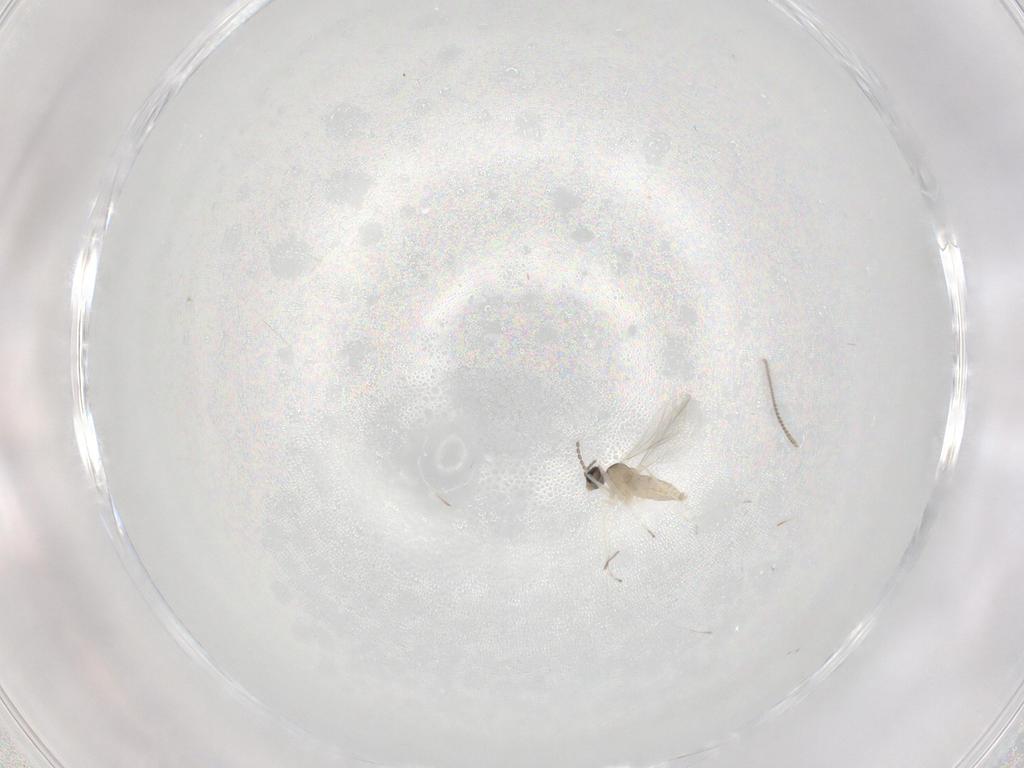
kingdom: Animalia
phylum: Arthropoda
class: Insecta
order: Diptera
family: Cecidomyiidae
